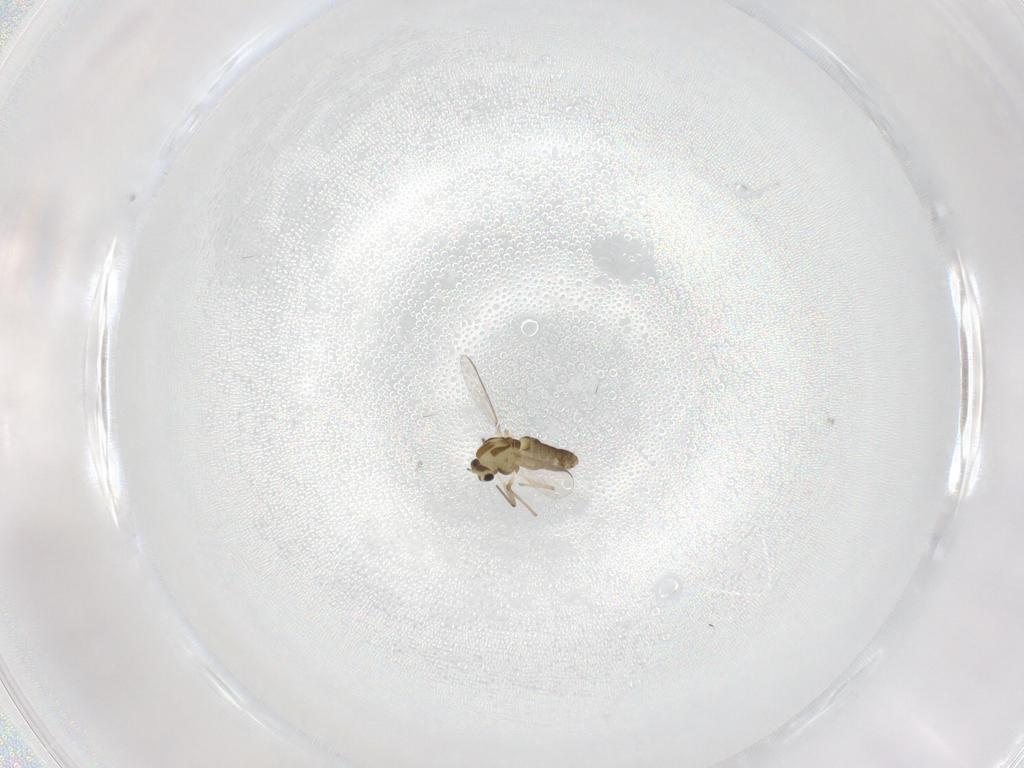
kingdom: Animalia
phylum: Arthropoda
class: Insecta
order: Diptera
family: Chironomidae
